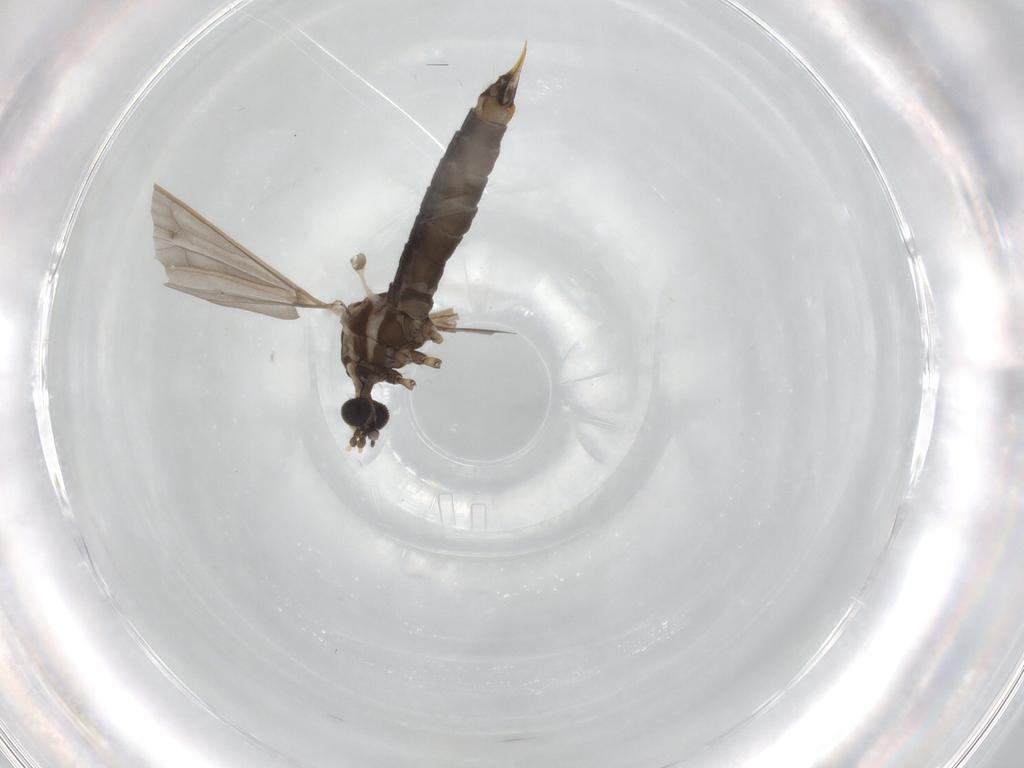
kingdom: Animalia
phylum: Arthropoda
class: Insecta
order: Diptera
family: Limoniidae
